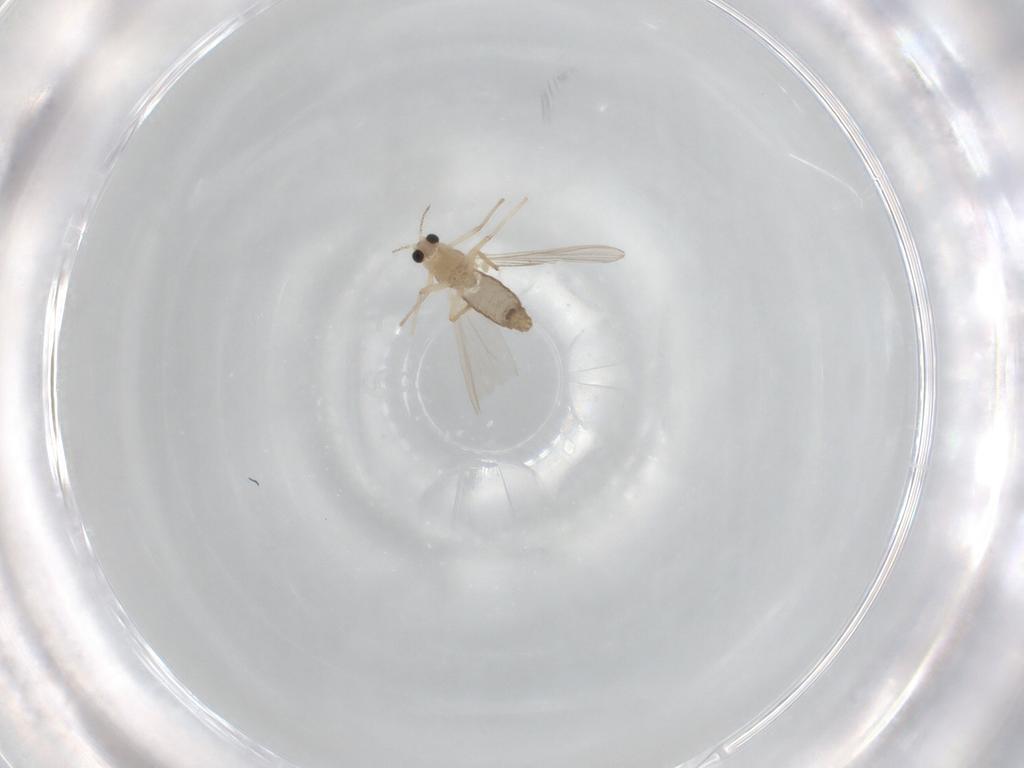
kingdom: Animalia
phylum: Arthropoda
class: Insecta
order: Diptera
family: Chironomidae
